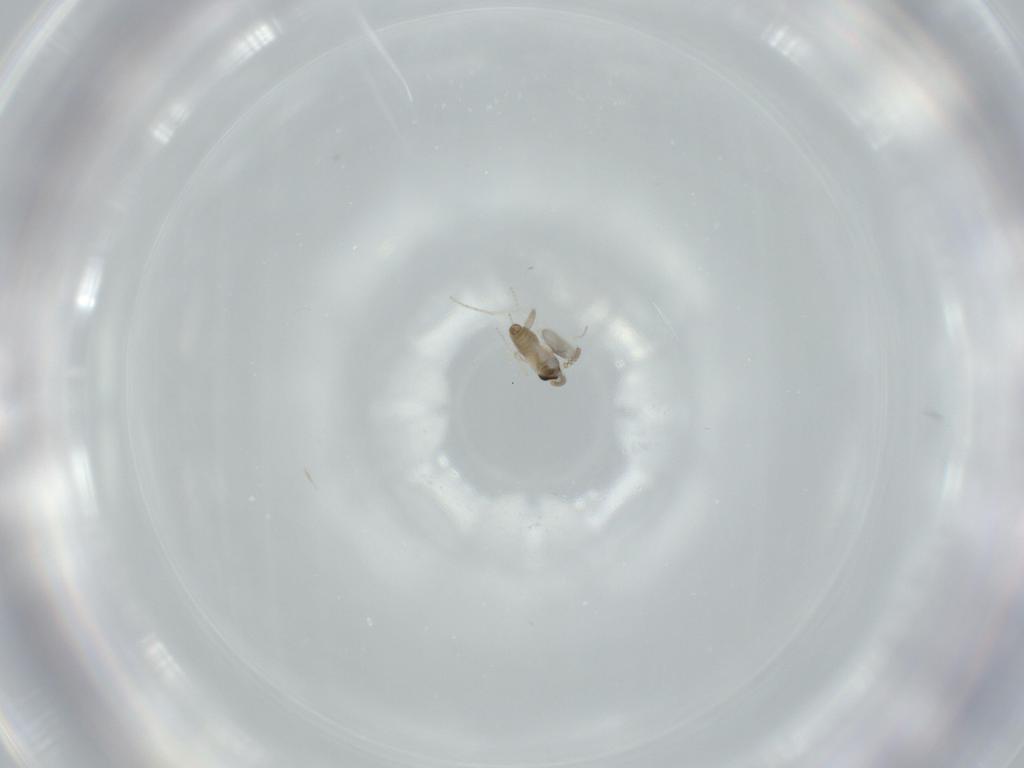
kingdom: Animalia
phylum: Arthropoda
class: Insecta
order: Diptera
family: Cecidomyiidae
